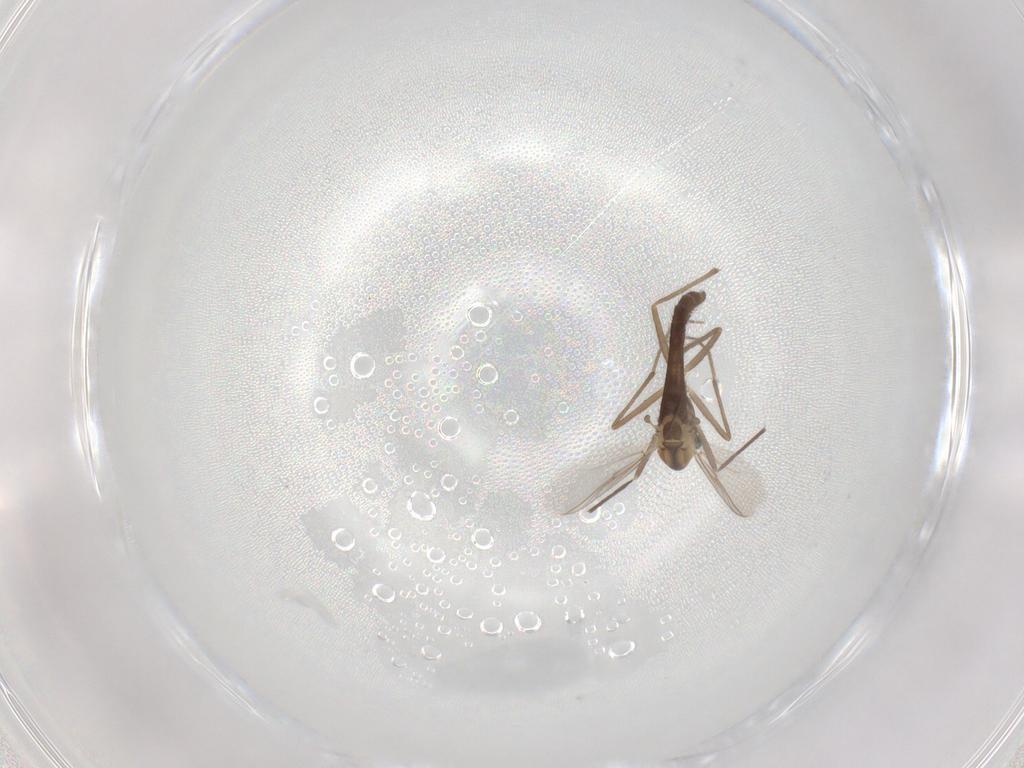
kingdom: Animalia
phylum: Arthropoda
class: Insecta
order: Diptera
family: Chironomidae
